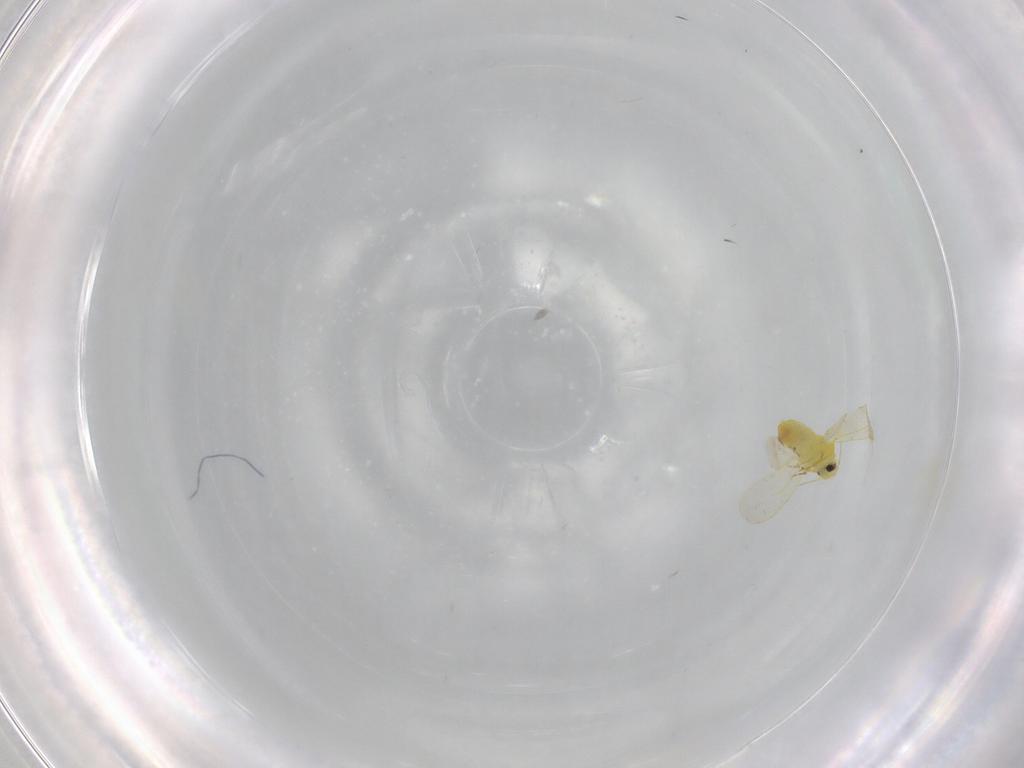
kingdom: Animalia
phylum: Arthropoda
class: Insecta
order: Hemiptera
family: Aleyrodidae
